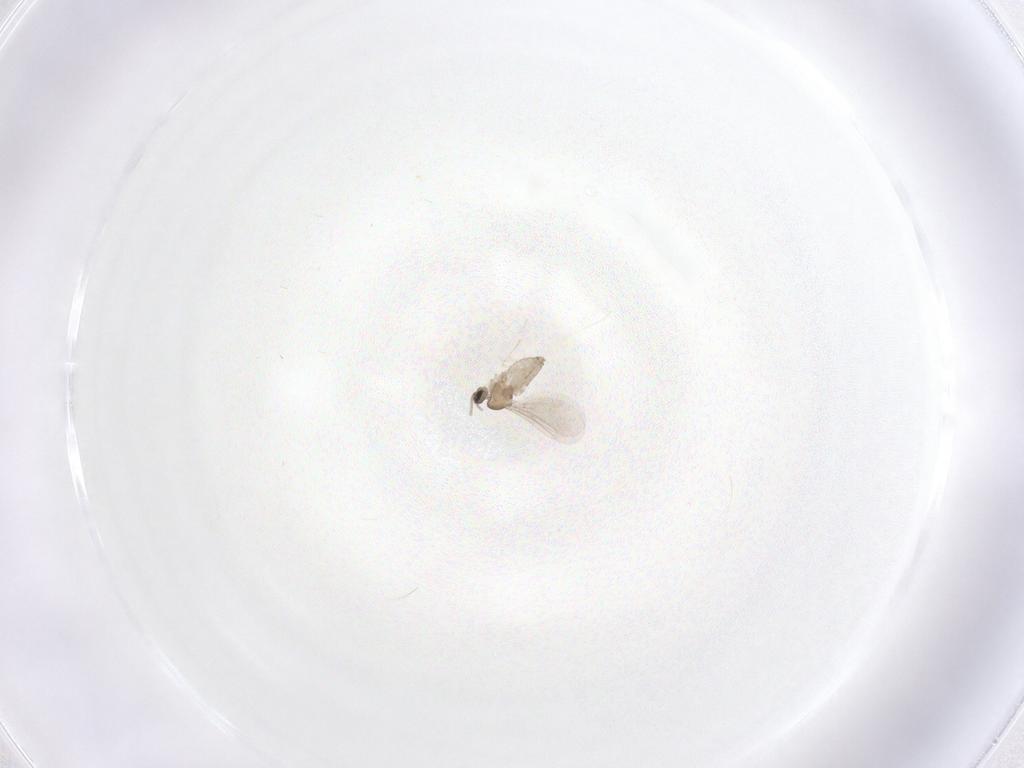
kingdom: Animalia
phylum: Arthropoda
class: Insecta
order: Diptera
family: Cecidomyiidae
